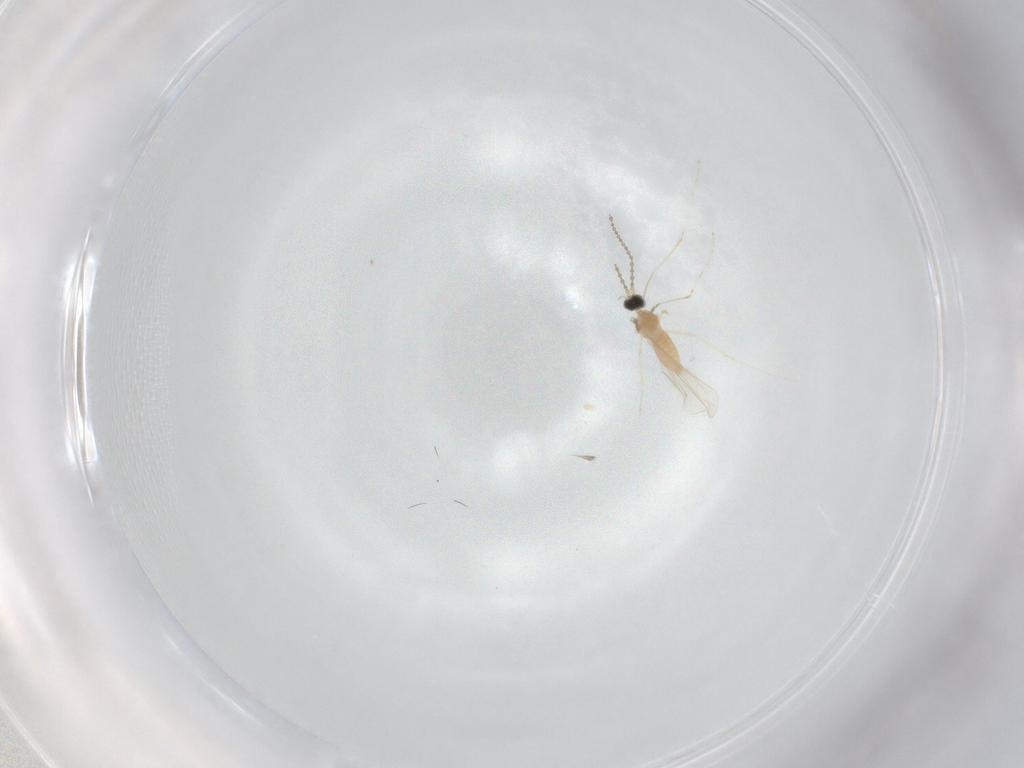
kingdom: Animalia
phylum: Arthropoda
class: Insecta
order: Diptera
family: Cecidomyiidae
